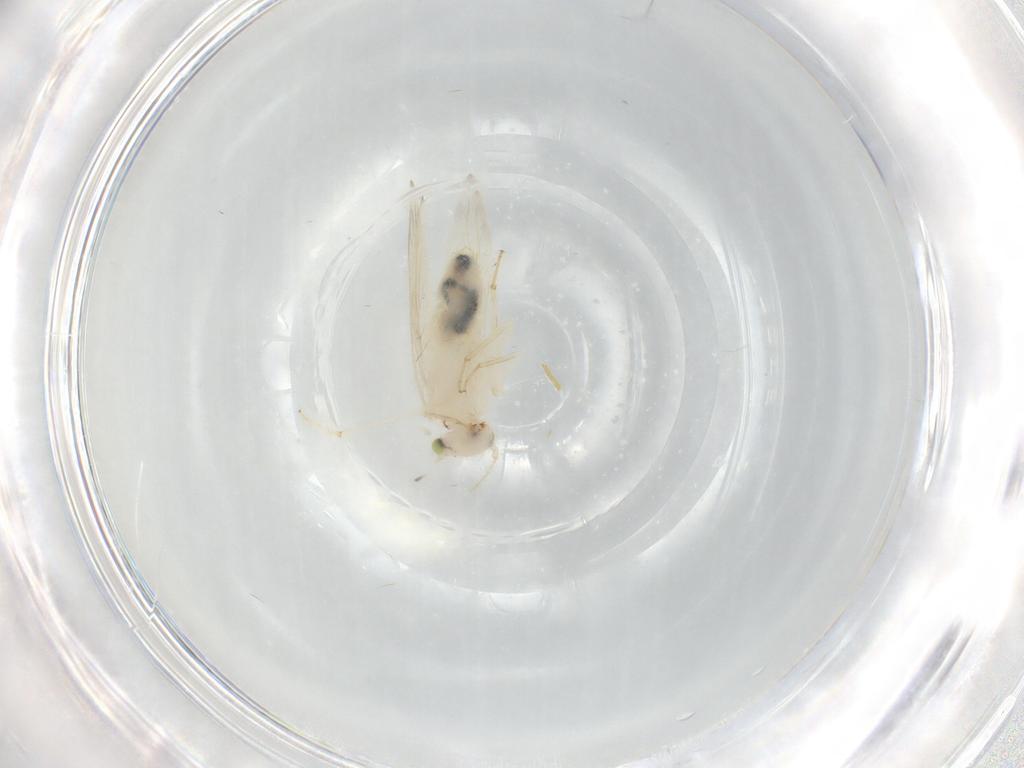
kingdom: Animalia
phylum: Arthropoda
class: Insecta
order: Psocodea
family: Lepidopsocidae
